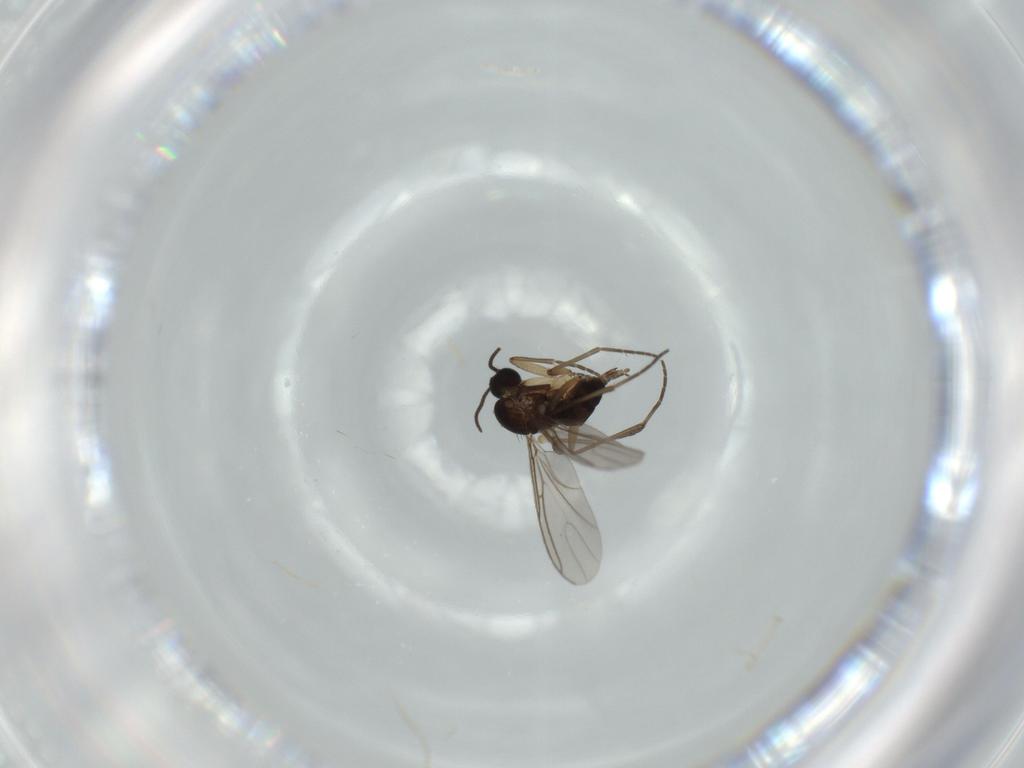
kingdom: Animalia
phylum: Arthropoda
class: Insecta
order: Diptera
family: Sciaridae
